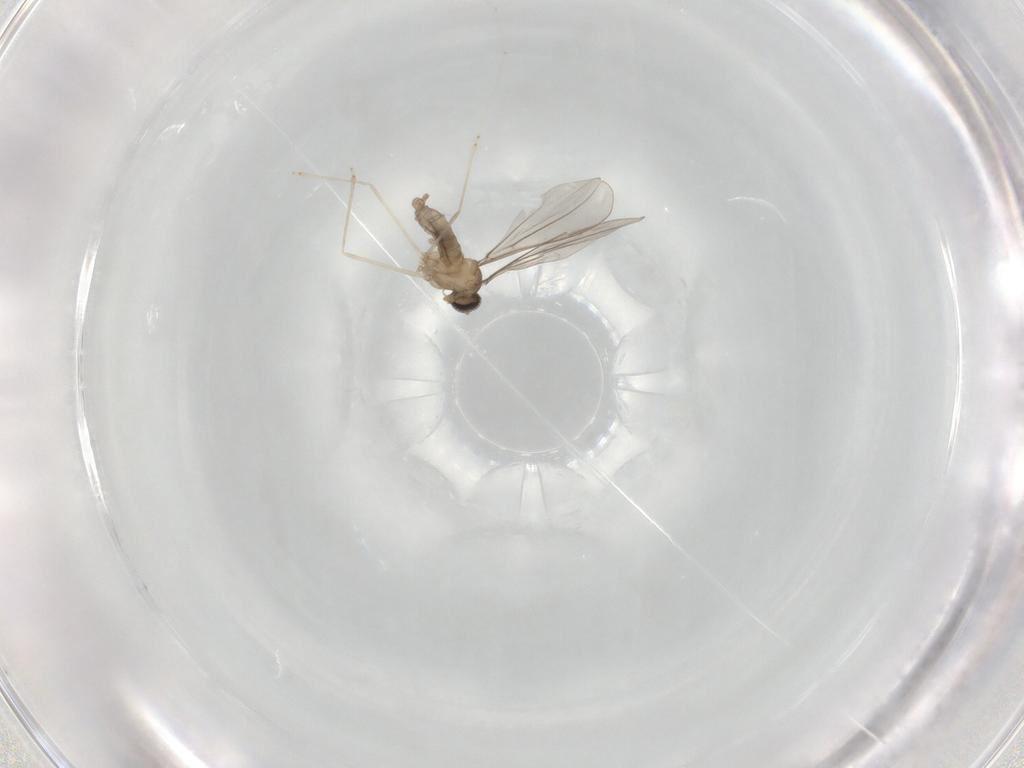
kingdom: Animalia
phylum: Arthropoda
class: Insecta
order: Diptera
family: Cecidomyiidae
